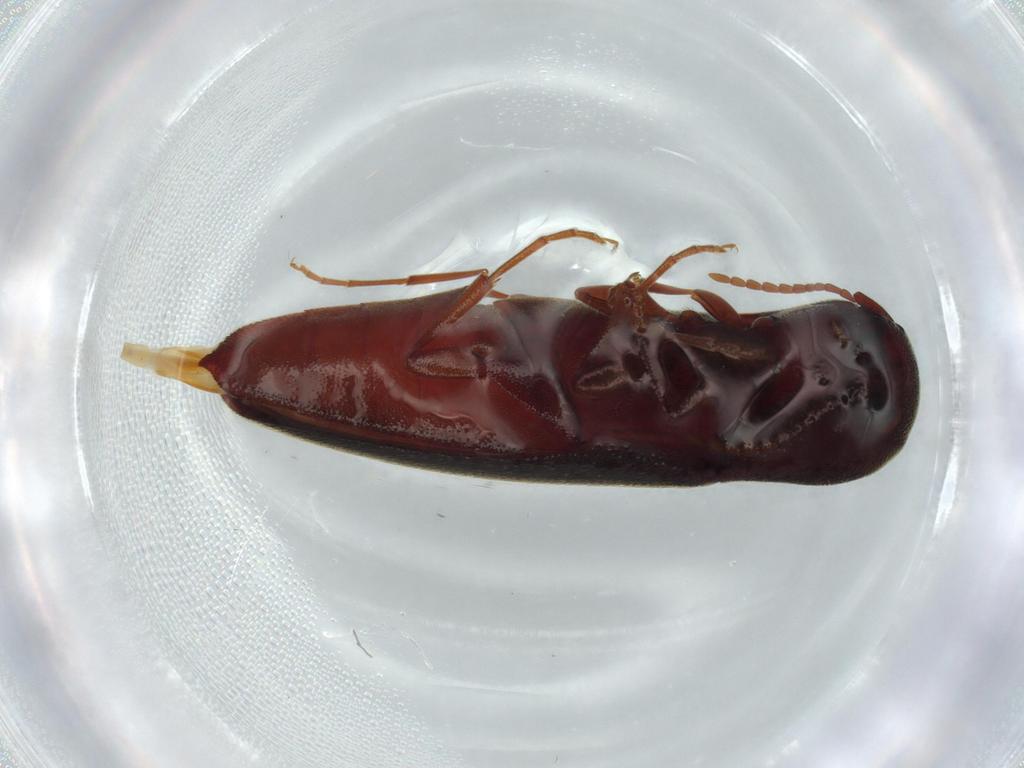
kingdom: Animalia
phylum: Arthropoda
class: Insecta
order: Coleoptera
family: Eucnemidae
